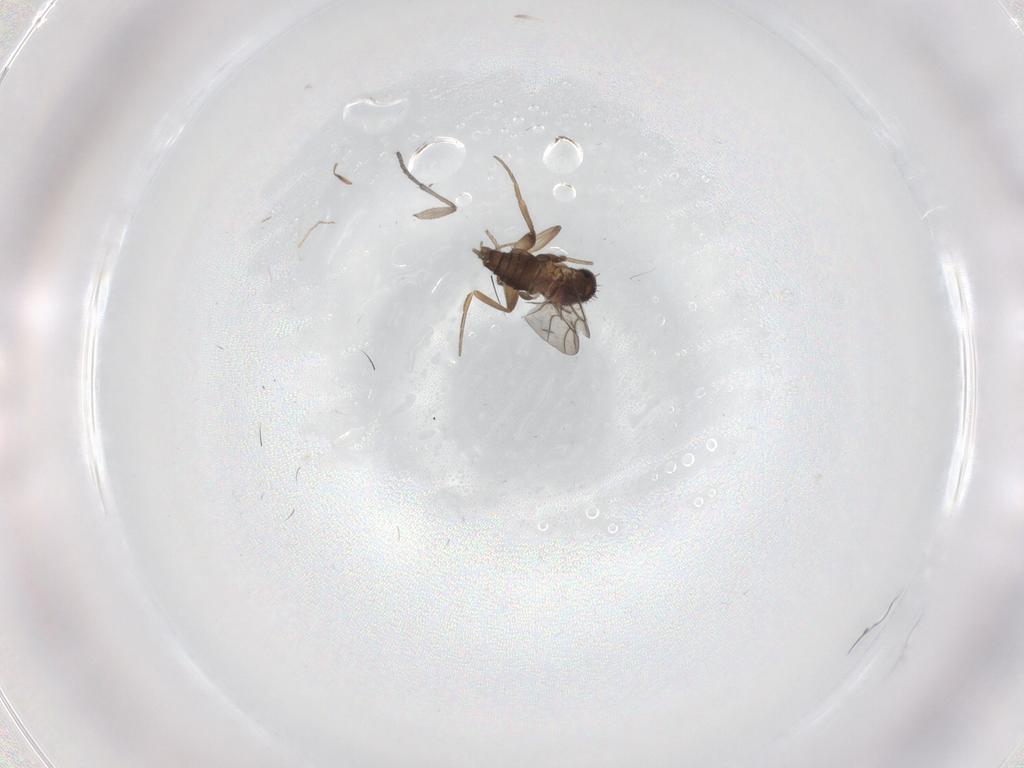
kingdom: Animalia
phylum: Arthropoda
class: Insecta
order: Diptera
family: Sciaridae
